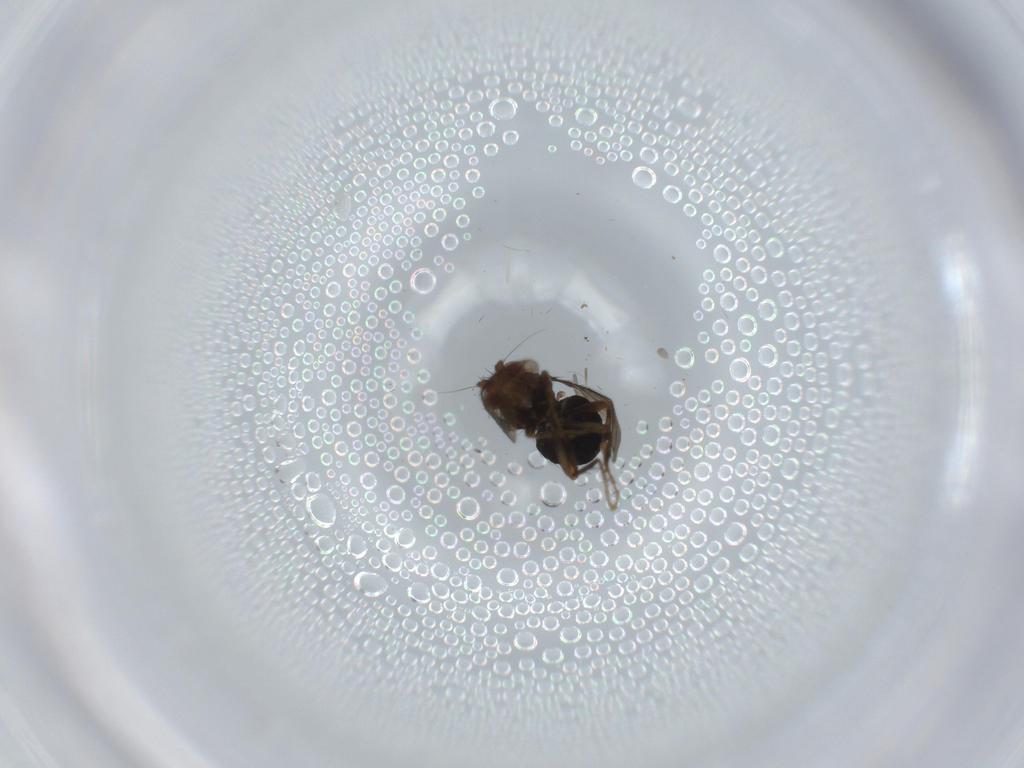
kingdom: Animalia
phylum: Arthropoda
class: Insecta
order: Diptera
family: Sphaeroceridae
